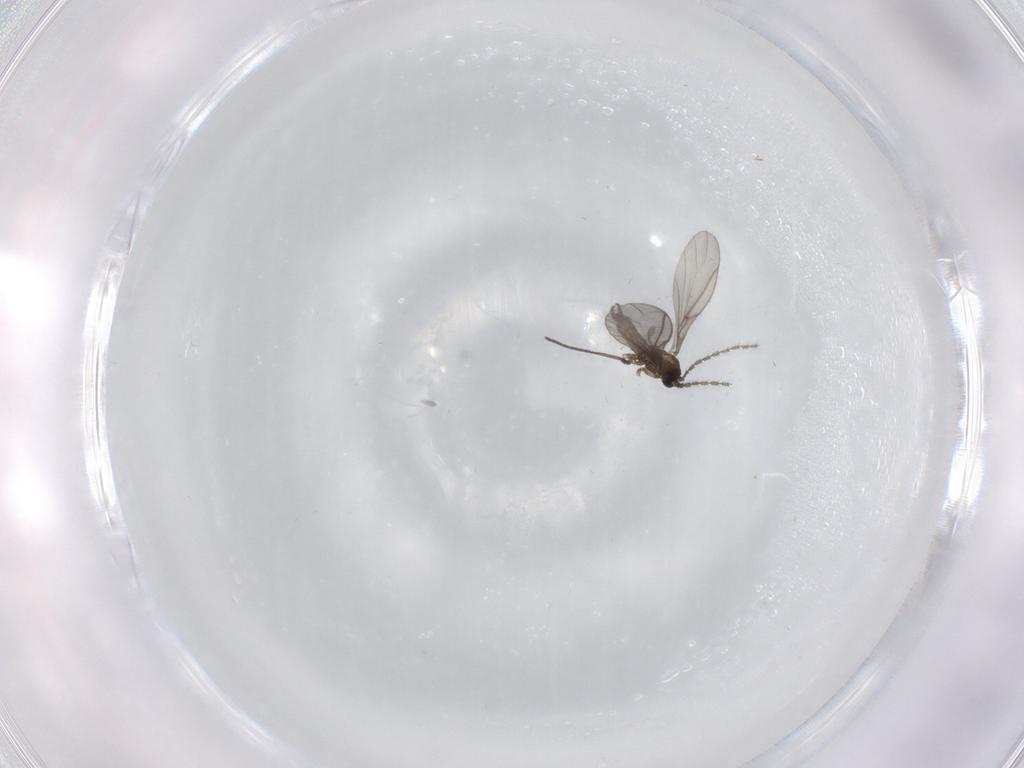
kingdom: Animalia
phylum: Arthropoda
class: Insecta
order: Diptera
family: Sciaridae
